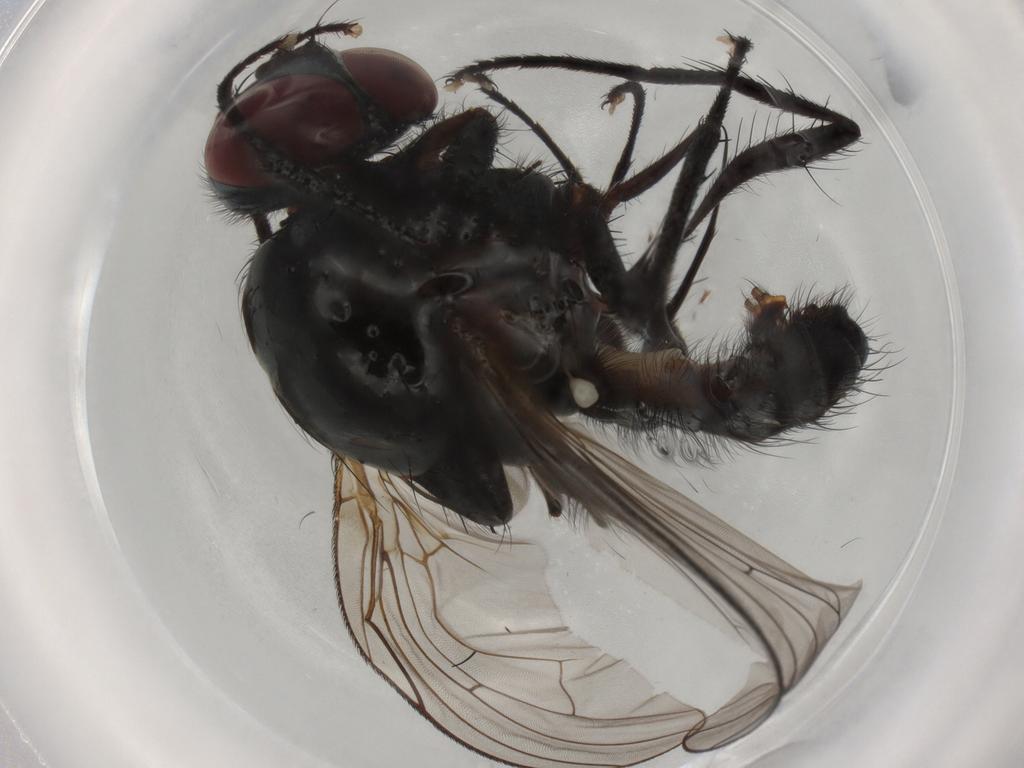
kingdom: Animalia
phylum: Arthropoda
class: Insecta
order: Diptera
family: Anthomyiidae
